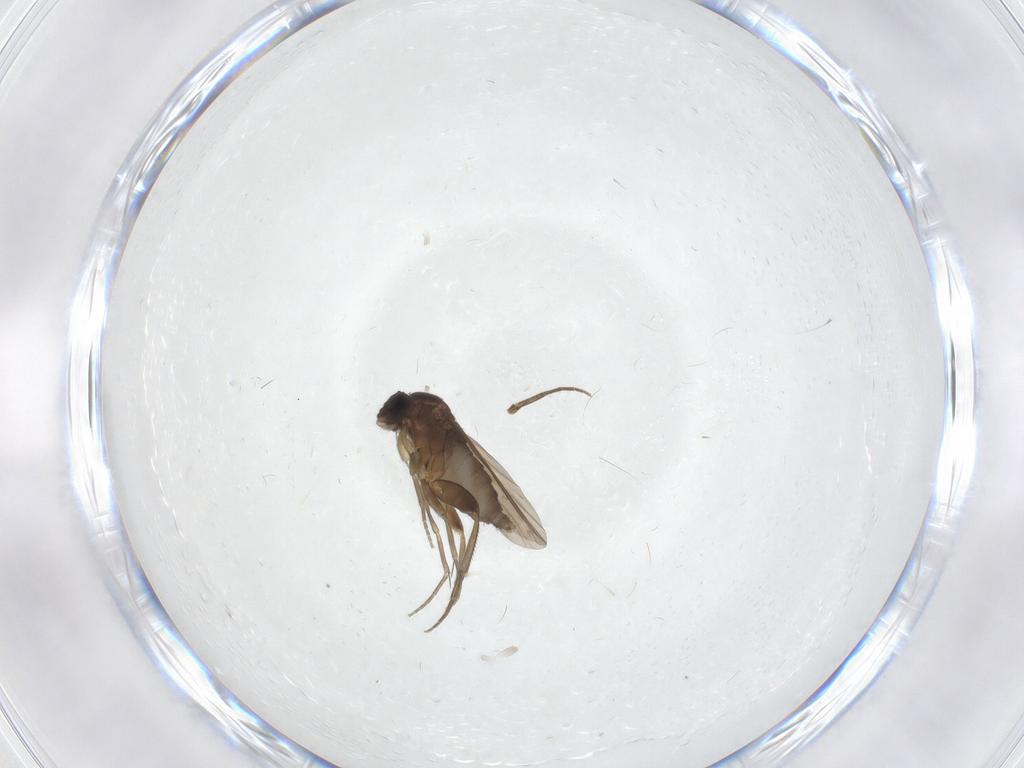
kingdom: Animalia
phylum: Arthropoda
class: Insecta
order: Diptera
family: Phoridae
